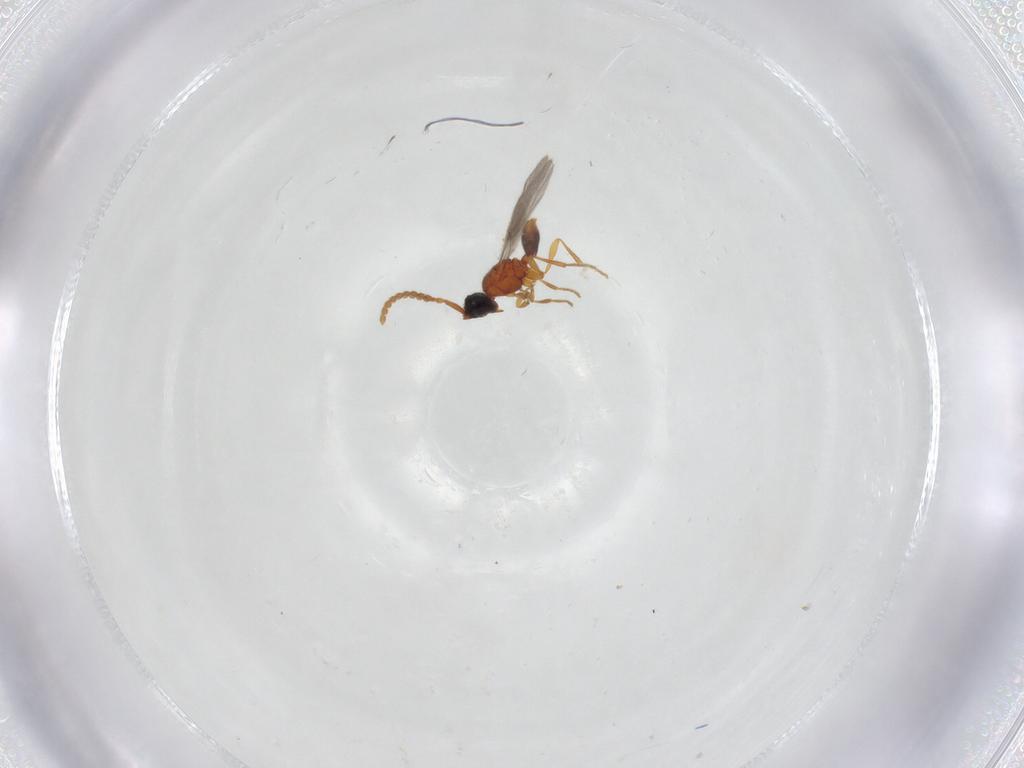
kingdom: Animalia
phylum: Arthropoda
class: Insecta
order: Hymenoptera
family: Diapriidae
